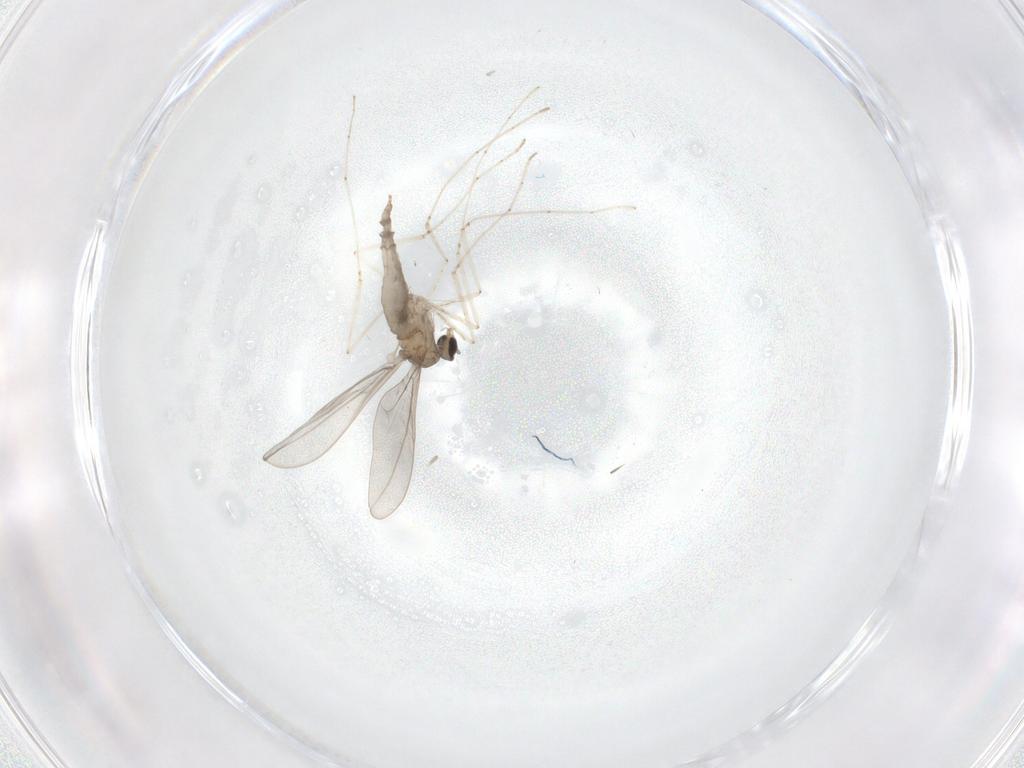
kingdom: Animalia
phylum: Arthropoda
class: Insecta
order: Diptera
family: Cecidomyiidae
